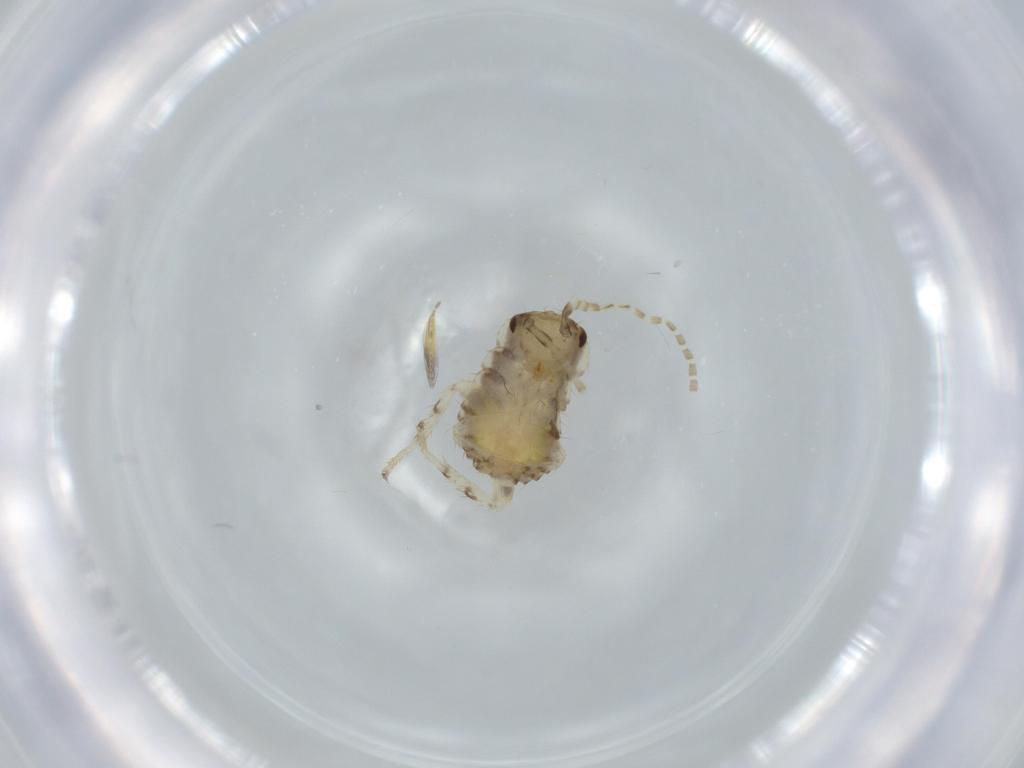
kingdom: Animalia
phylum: Arthropoda
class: Insecta
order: Blattodea
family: Ectobiidae
